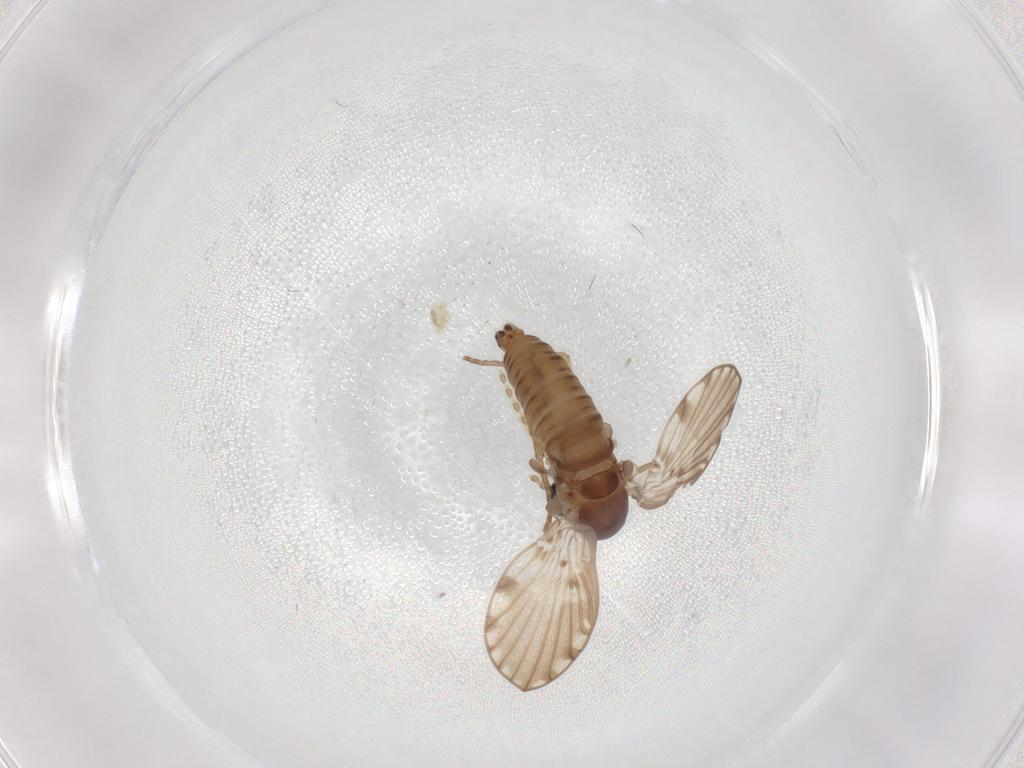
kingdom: Animalia
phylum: Arthropoda
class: Insecta
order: Diptera
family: Psychodidae
